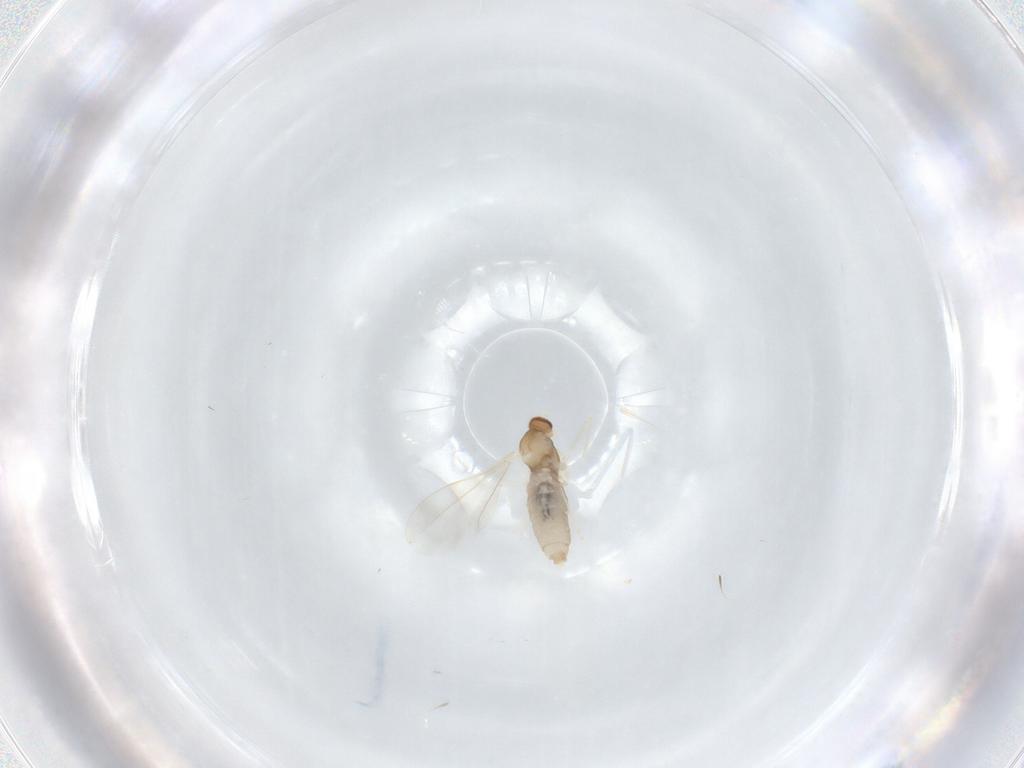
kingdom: Animalia
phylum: Arthropoda
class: Insecta
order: Diptera
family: Cecidomyiidae
